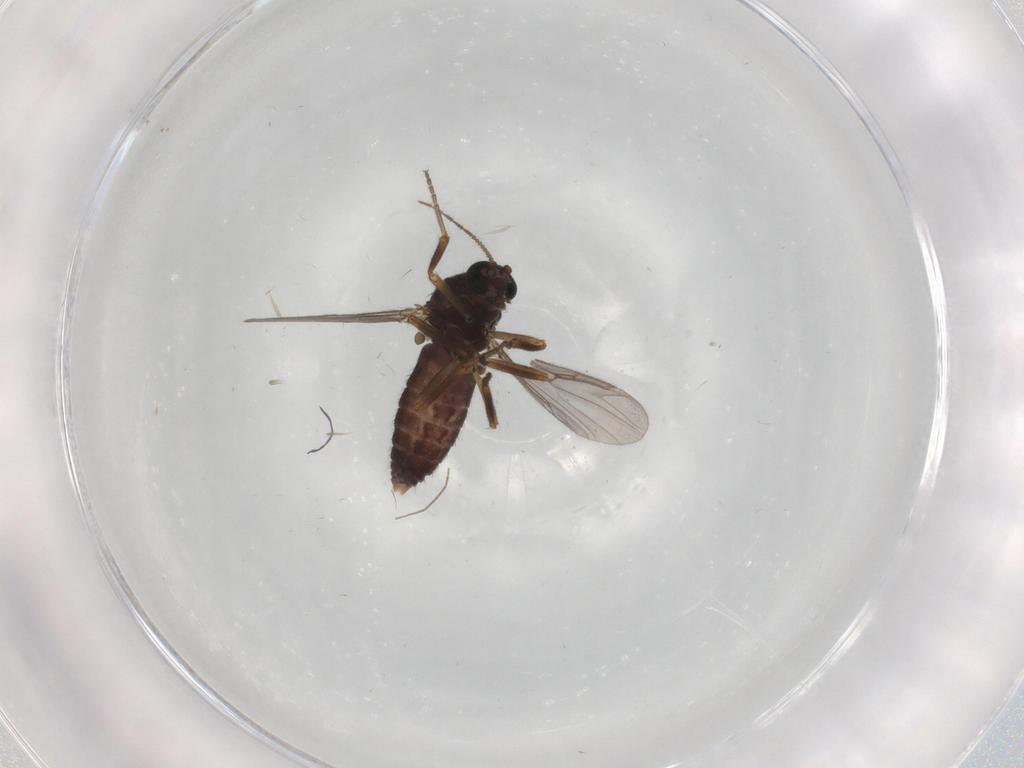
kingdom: Animalia
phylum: Arthropoda
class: Insecta
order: Diptera
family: Ceratopogonidae
